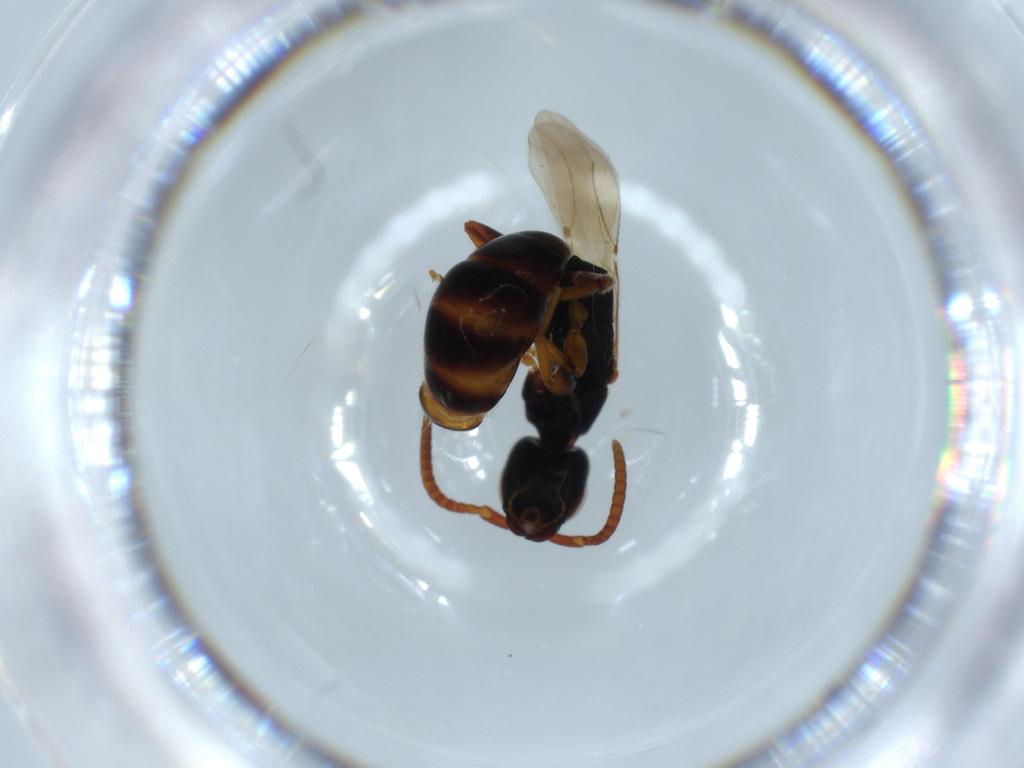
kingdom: Animalia
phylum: Arthropoda
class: Insecta
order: Hymenoptera
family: Bethylidae
